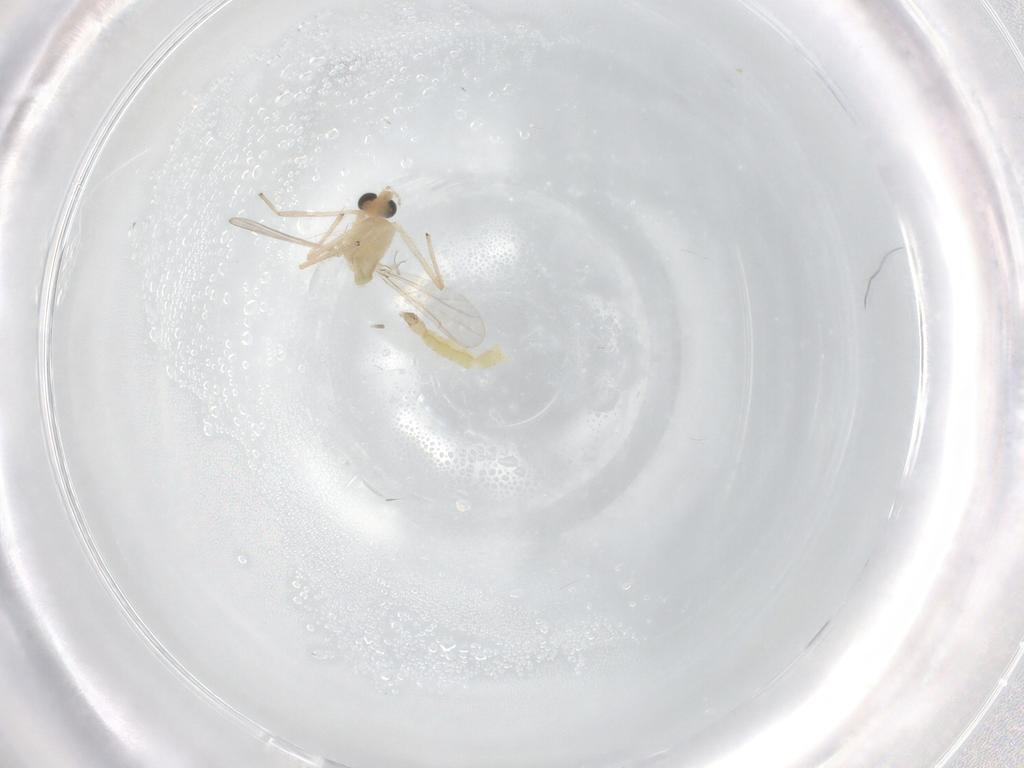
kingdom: Animalia
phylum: Arthropoda
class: Insecta
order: Diptera
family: Chironomidae
